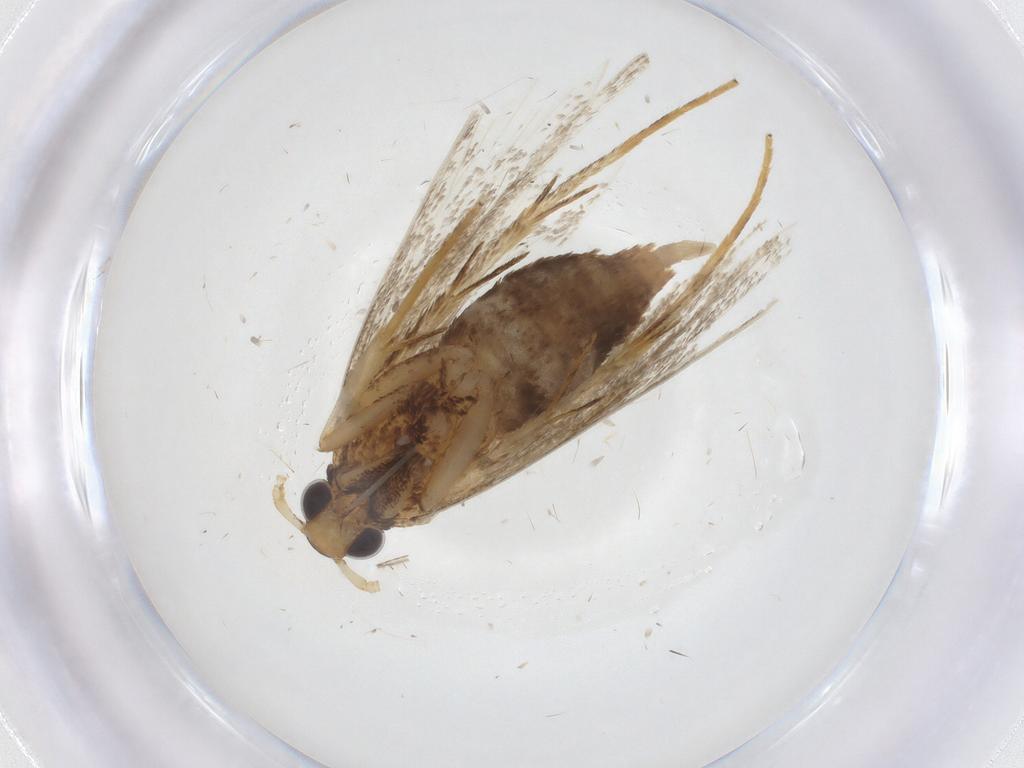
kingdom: Animalia
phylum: Arthropoda
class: Insecta
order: Lepidoptera
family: Lecithoceridae
